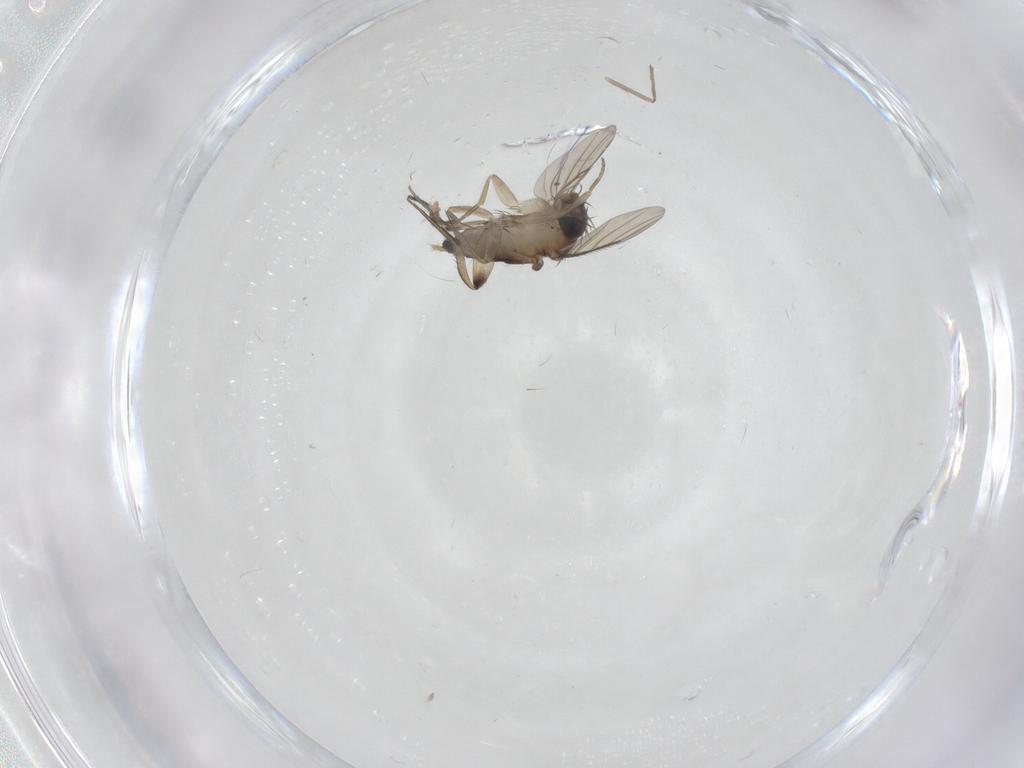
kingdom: Animalia
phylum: Arthropoda
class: Insecta
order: Diptera
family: Phoridae
